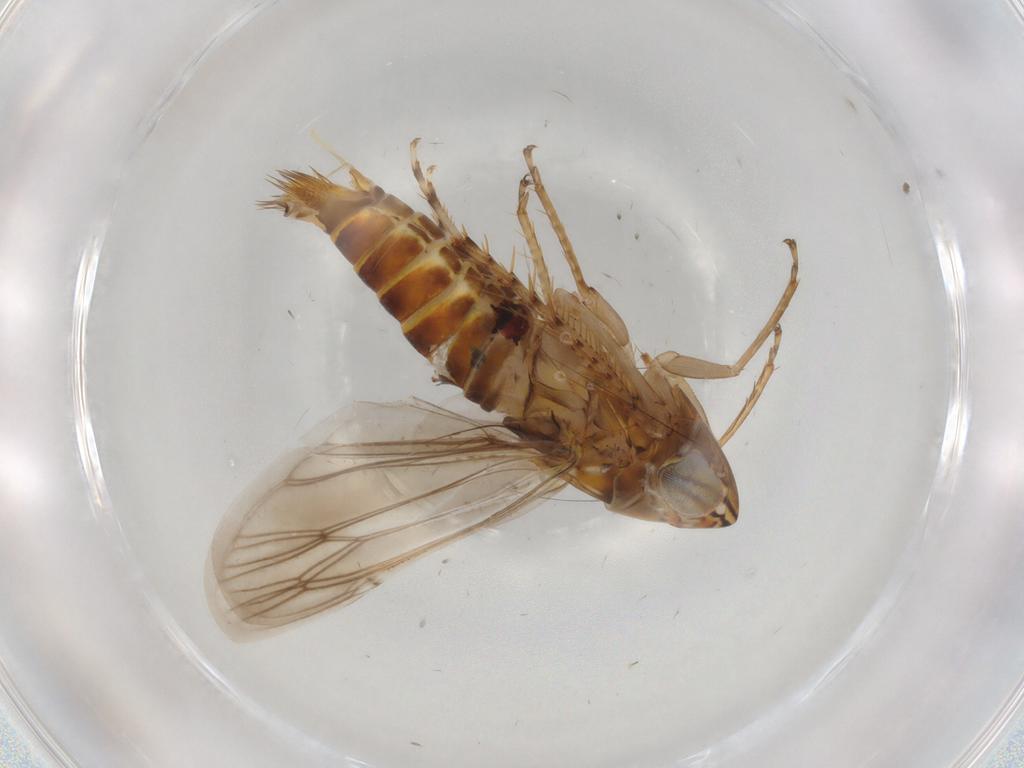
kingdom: Animalia
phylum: Arthropoda
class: Insecta
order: Hemiptera
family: Cicadellidae
